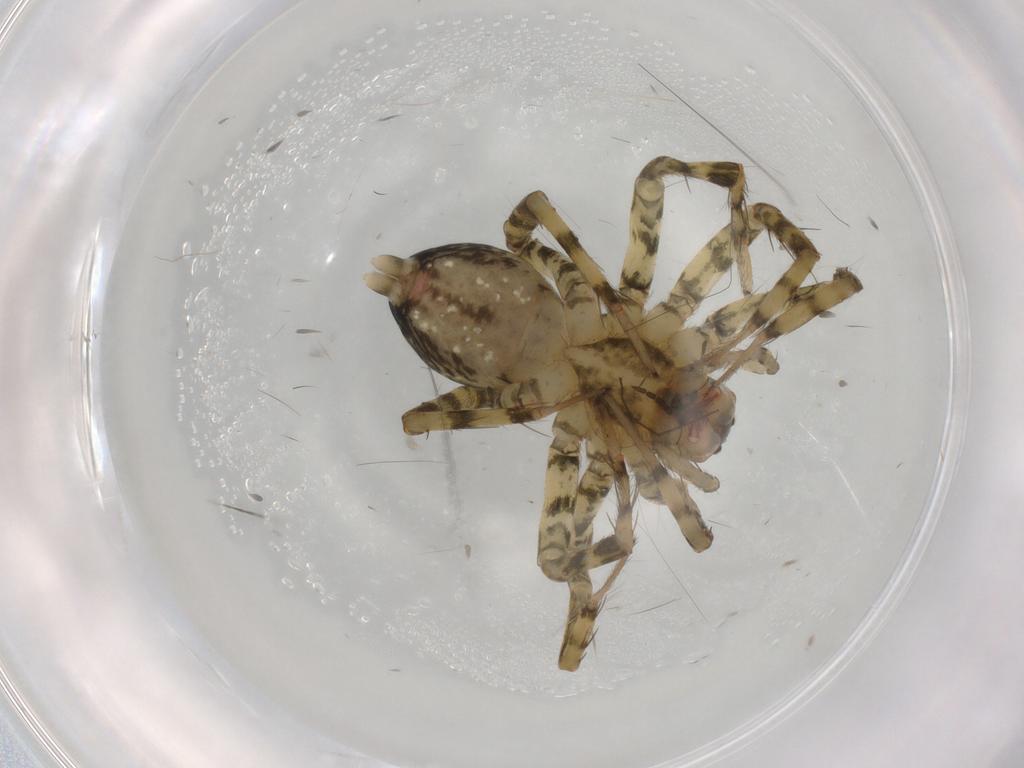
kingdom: Animalia
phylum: Arthropoda
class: Arachnida
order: Araneae
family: Amaurobiidae
